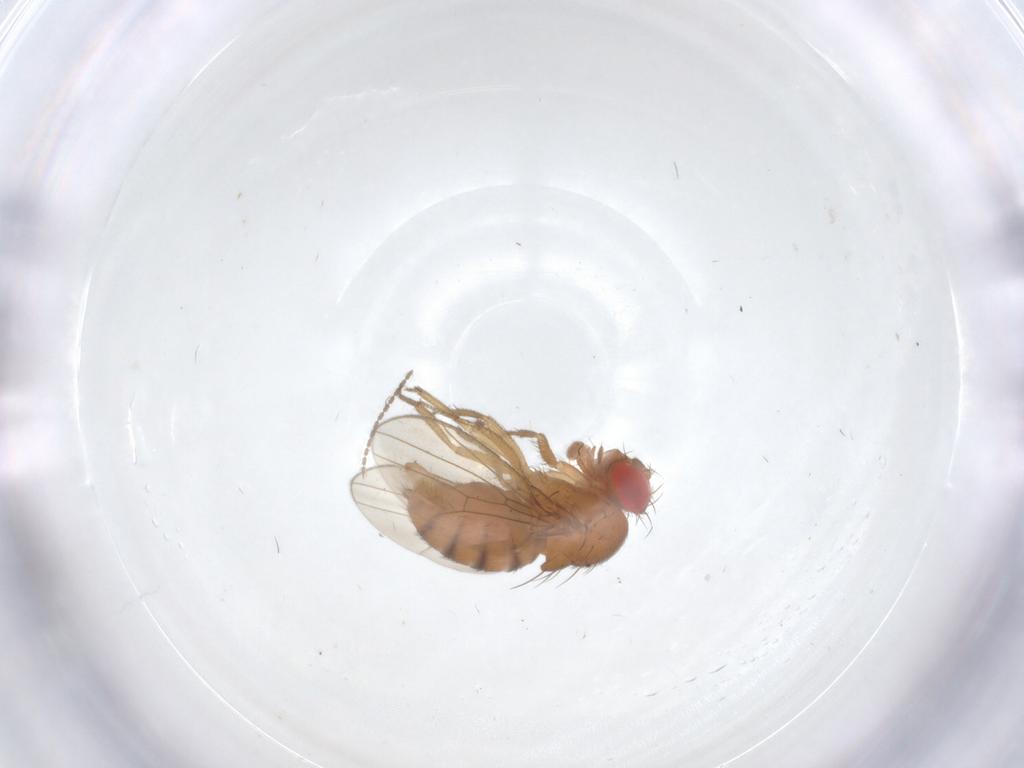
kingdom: Animalia
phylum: Arthropoda
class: Insecta
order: Diptera
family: Drosophilidae
